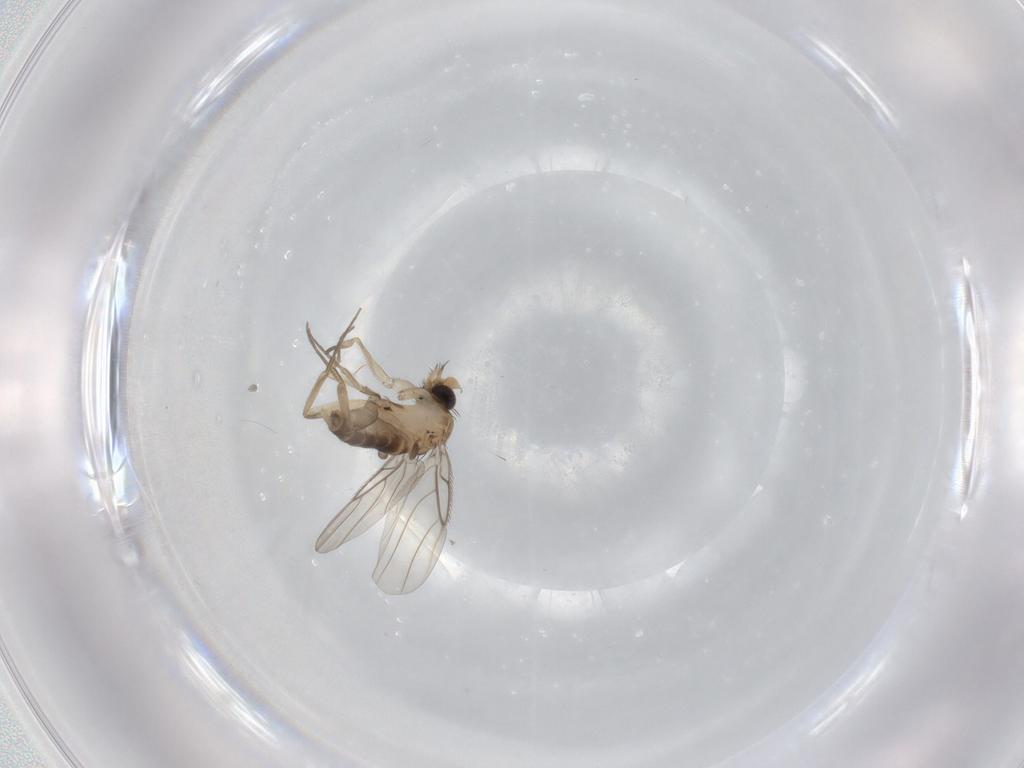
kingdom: Animalia
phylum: Arthropoda
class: Insecta
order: Diptera
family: Phoridae
